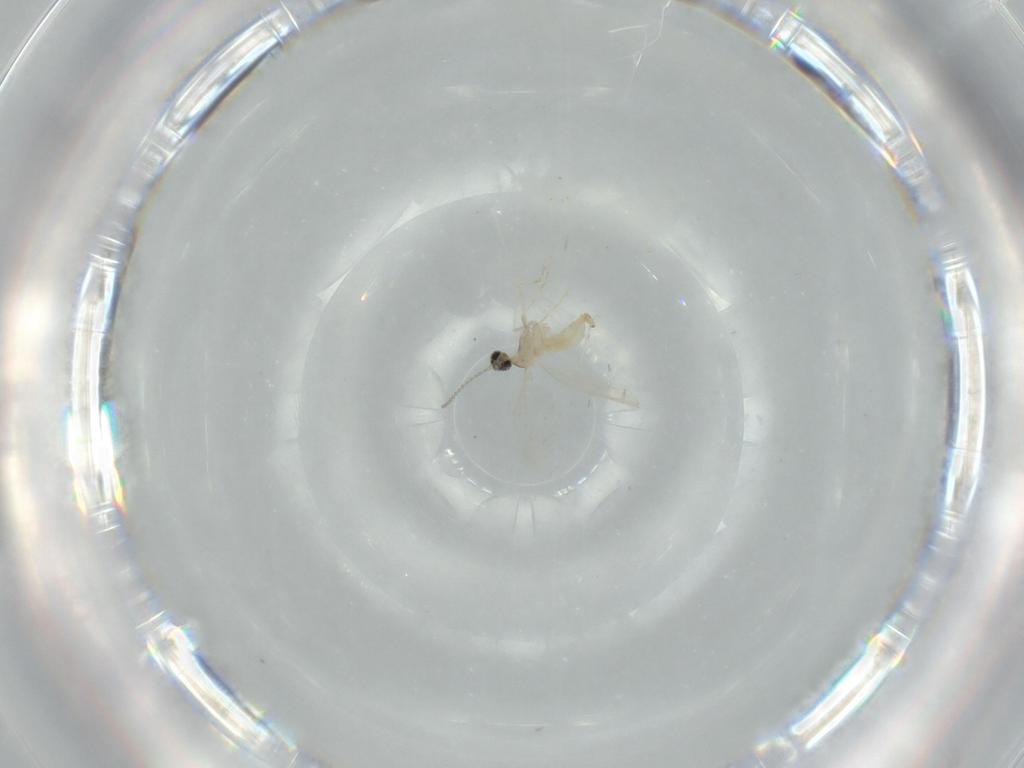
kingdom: Animalia
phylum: Arthropoda
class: Insecta
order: Diptera
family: Cecidomyiidae
